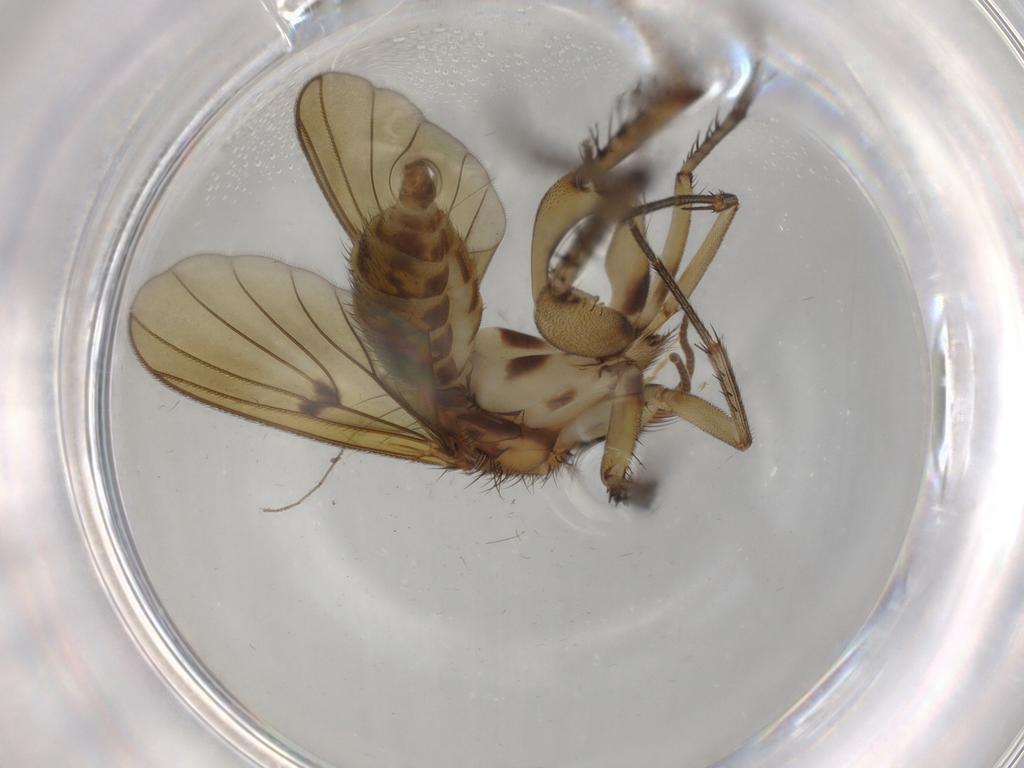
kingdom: Animalia
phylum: Arthropoda
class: Insecta
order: Diptera
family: Cecidomyiidae
